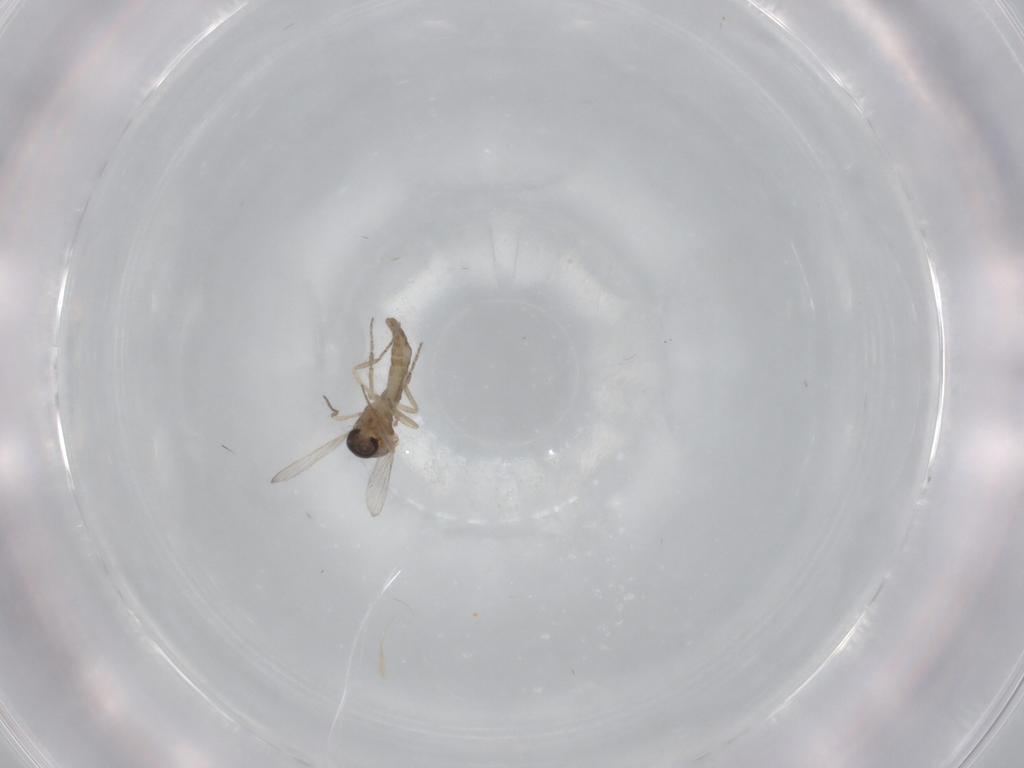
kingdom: Animalia
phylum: Arthropoda
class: Insecta
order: Diptera
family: Ceratopogonidae
